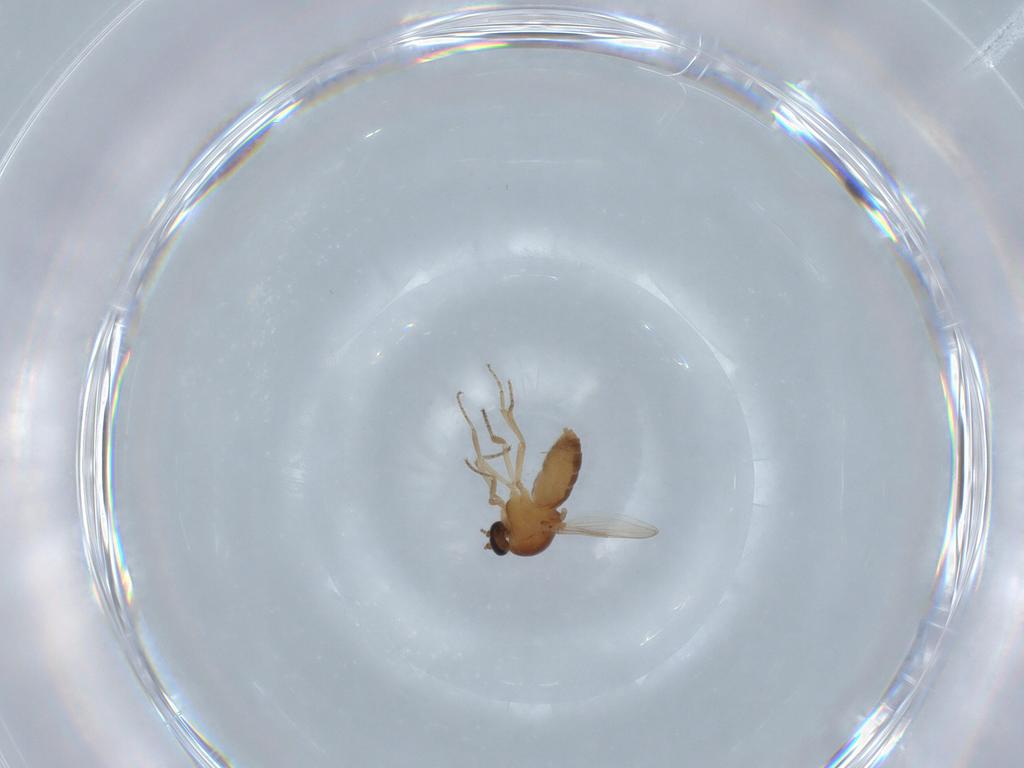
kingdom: Animalia
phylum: Arthropoda
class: Insecta
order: Diptera
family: Ceratopogonidae
